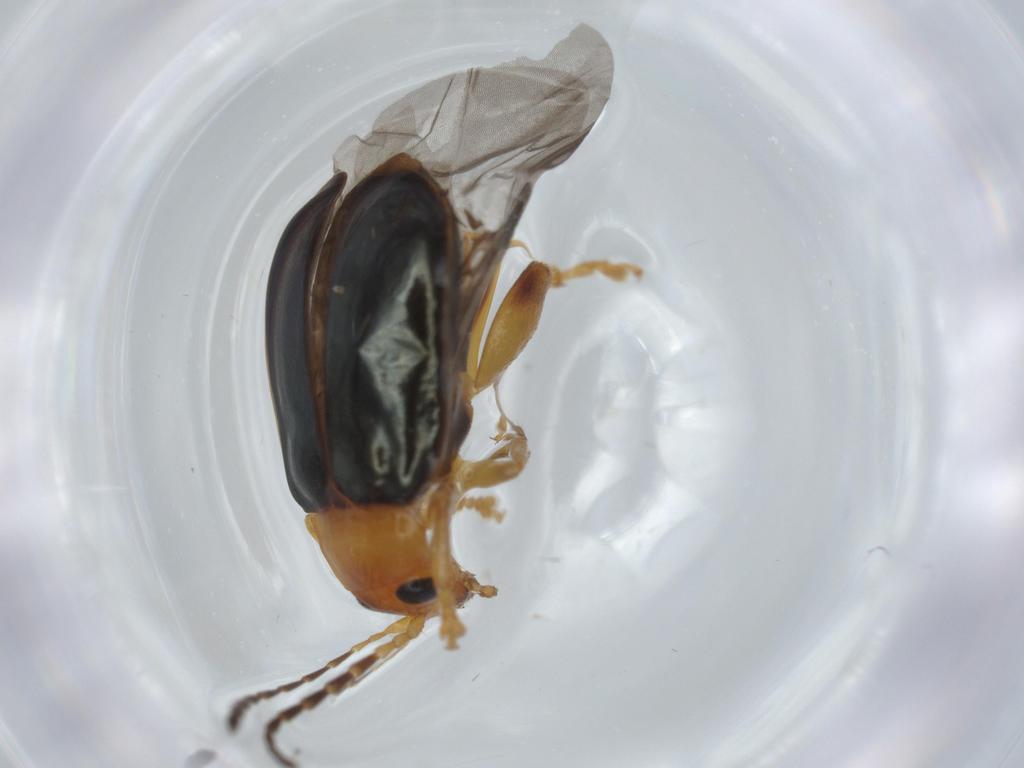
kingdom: Animalia
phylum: Arthropoda
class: Insecta
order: Coleoptera
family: Chrysomelidae
